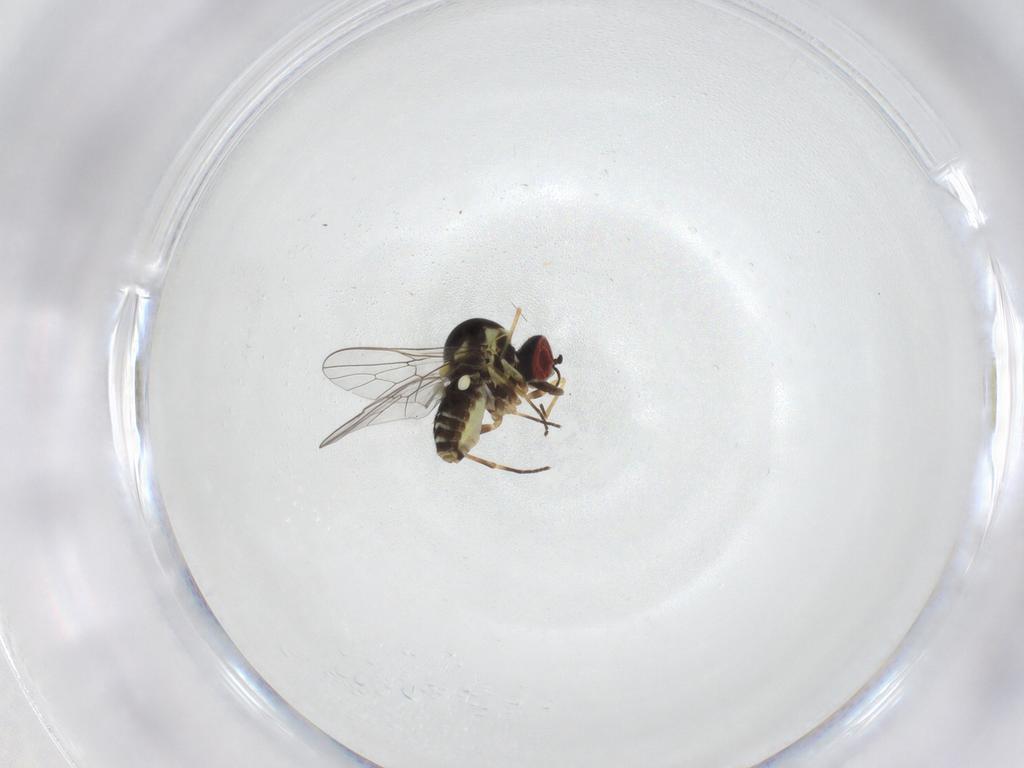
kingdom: Animalia
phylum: Arthropoda
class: Insecta
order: Diptera
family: Bombyliidae
